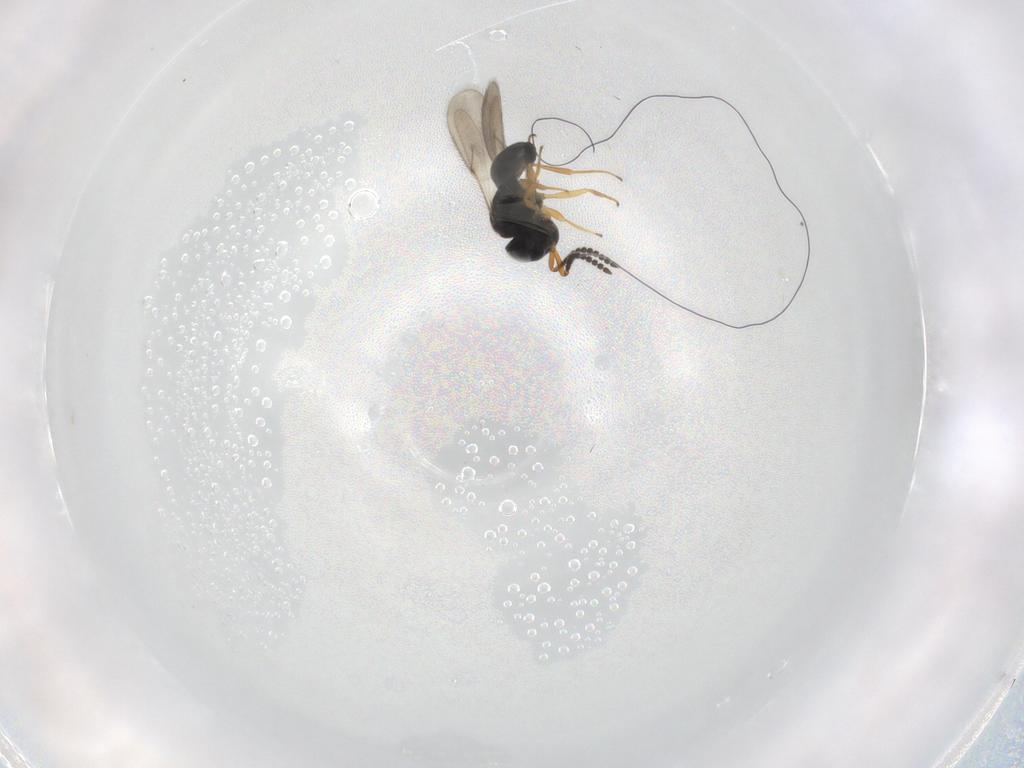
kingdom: Animalia
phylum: Arthropoda
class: Insecta
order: Hymenoptera
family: Scelionidae
